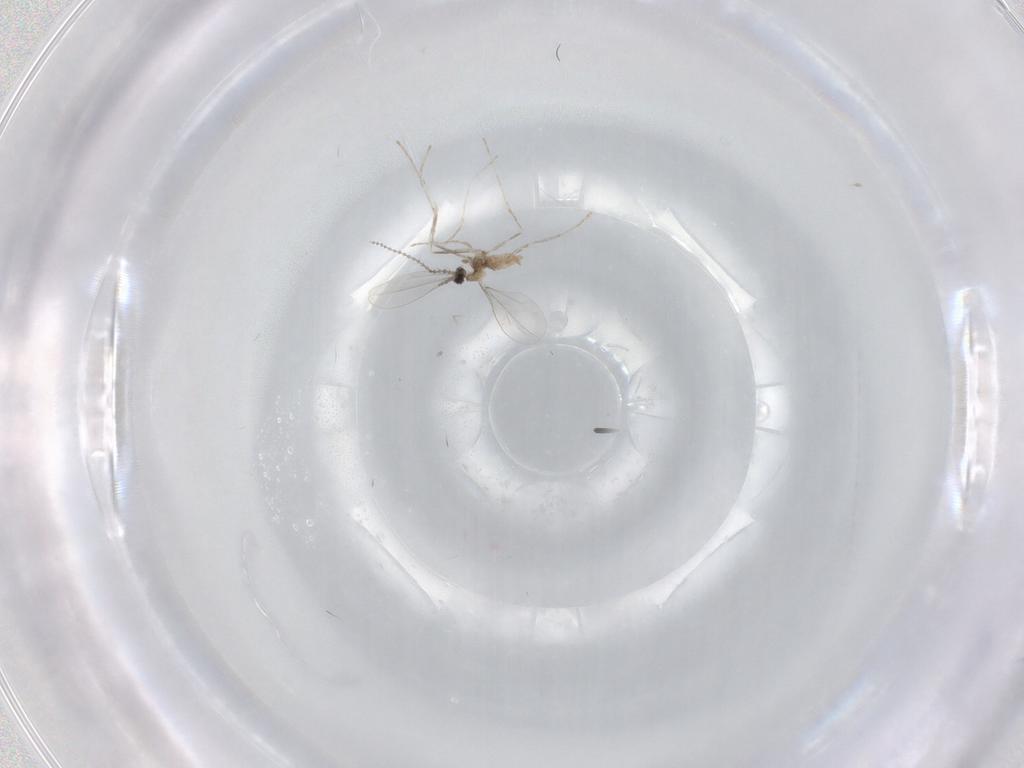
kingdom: Animalia
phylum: Arthropoda
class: Insecta
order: Diptera
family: Cecidomyiidae
